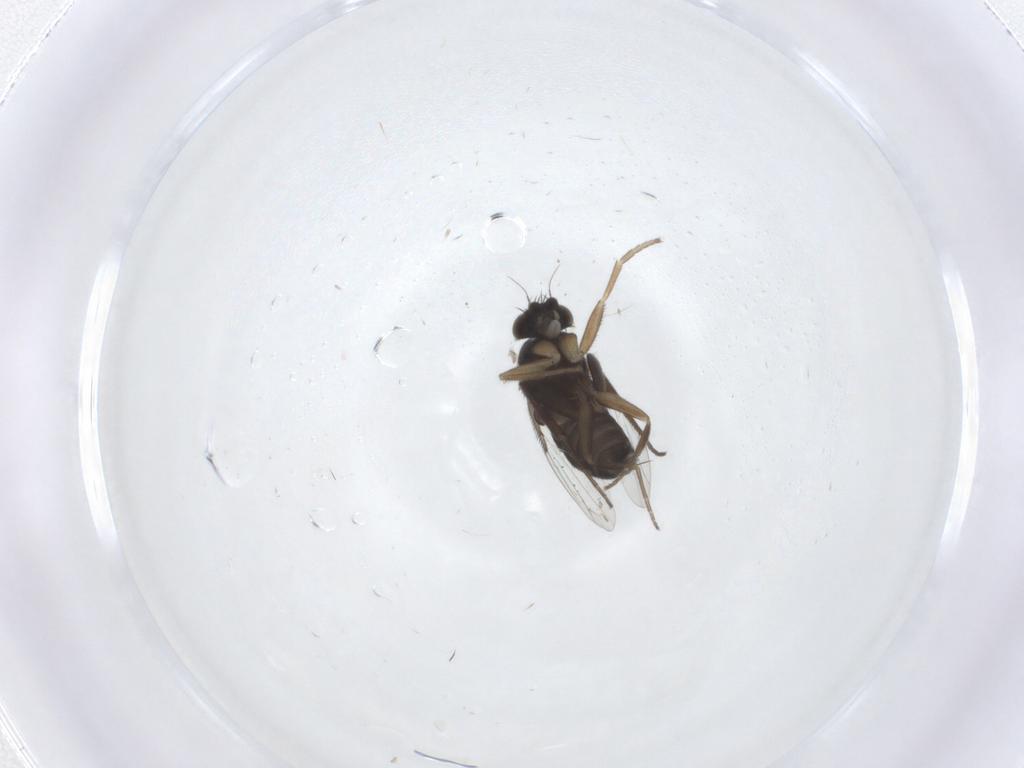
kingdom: Animalia
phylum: Arthropoda
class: Insecta
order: Diptera
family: Phoridae
